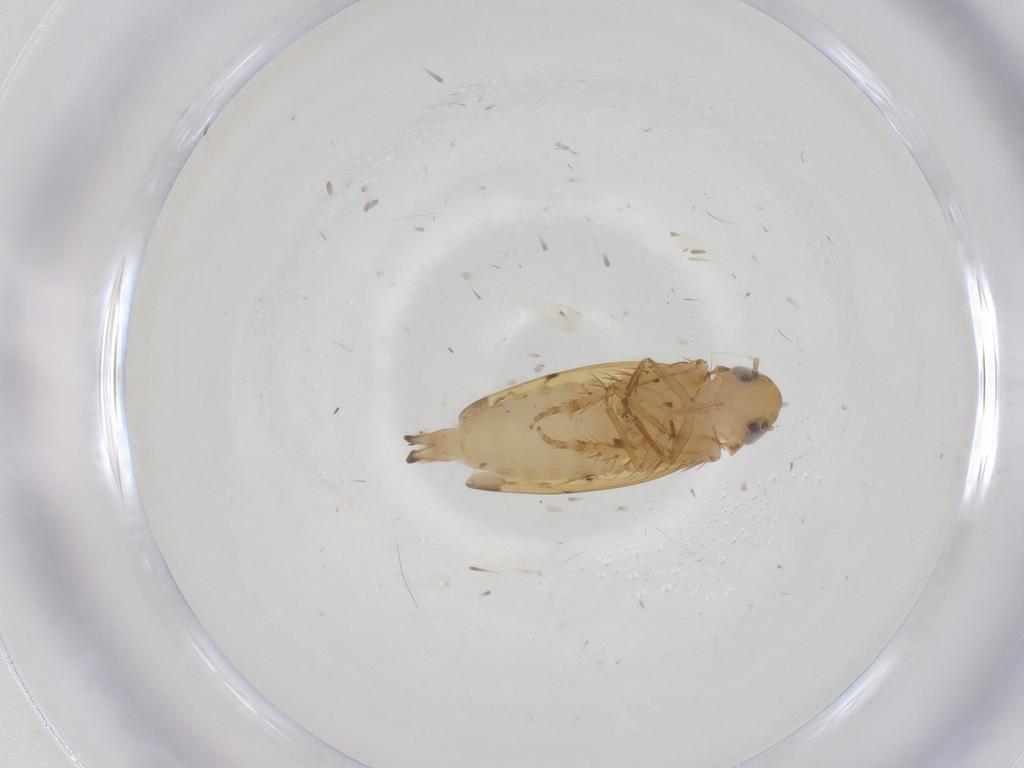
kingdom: Animalia
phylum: Arthropoda
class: Insecta
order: Hemiptera
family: Cicadellidae
